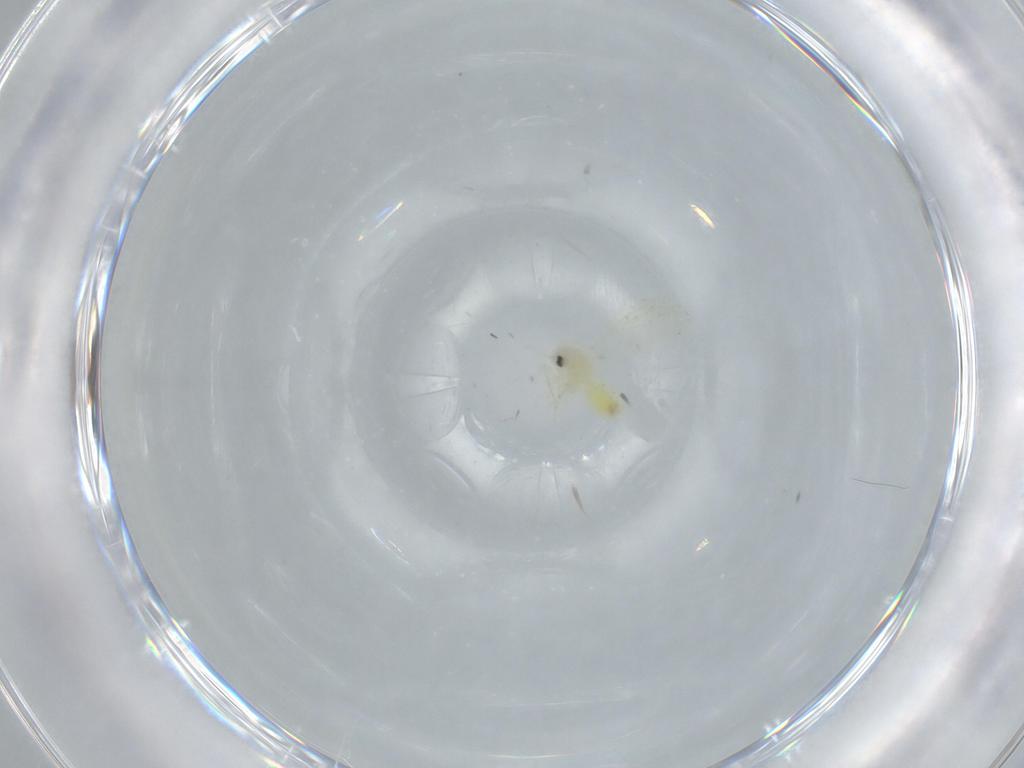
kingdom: Animalia
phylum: Arthropoda
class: Insecta
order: Hemiptera
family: Aleyrodidae
